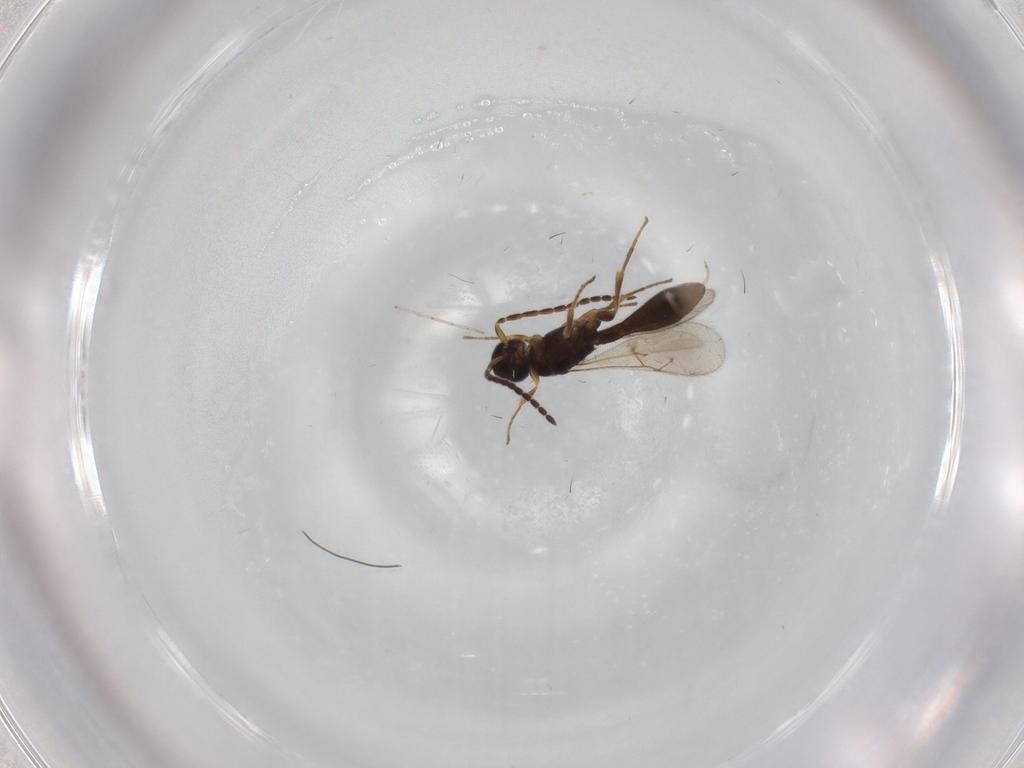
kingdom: Animalia
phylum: Arthropoda
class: Insecta
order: Hymenoptera
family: Scelionidae
